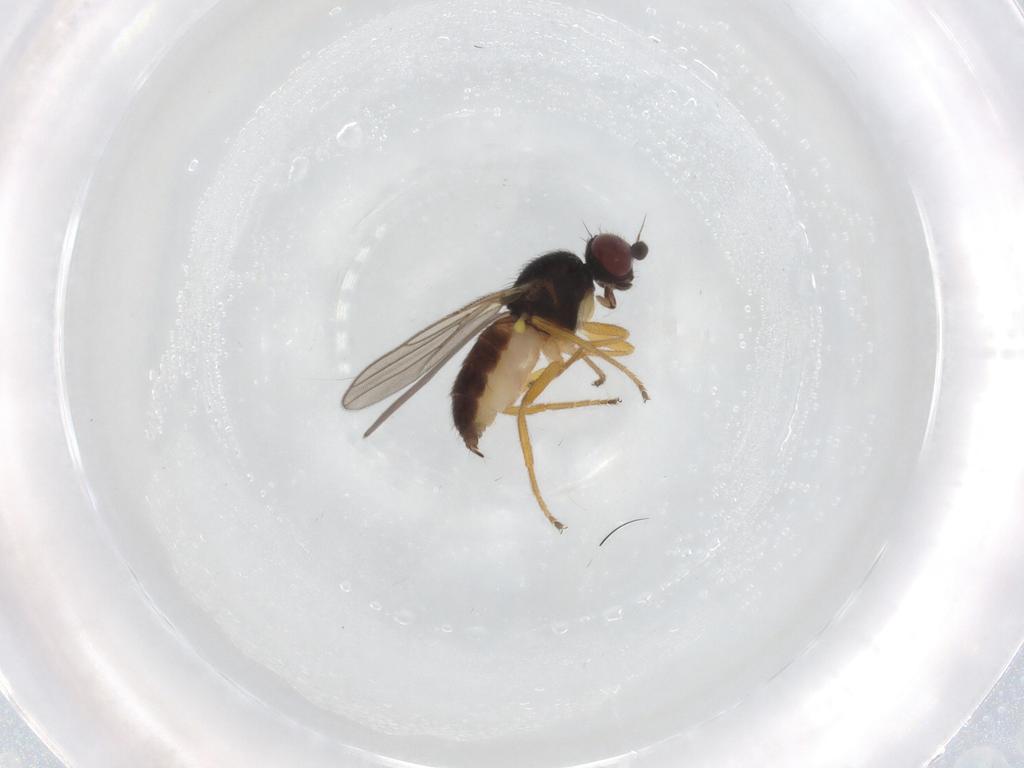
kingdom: Animalia
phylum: Arthropoda
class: Insecta
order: Diptera
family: Chloropidae
